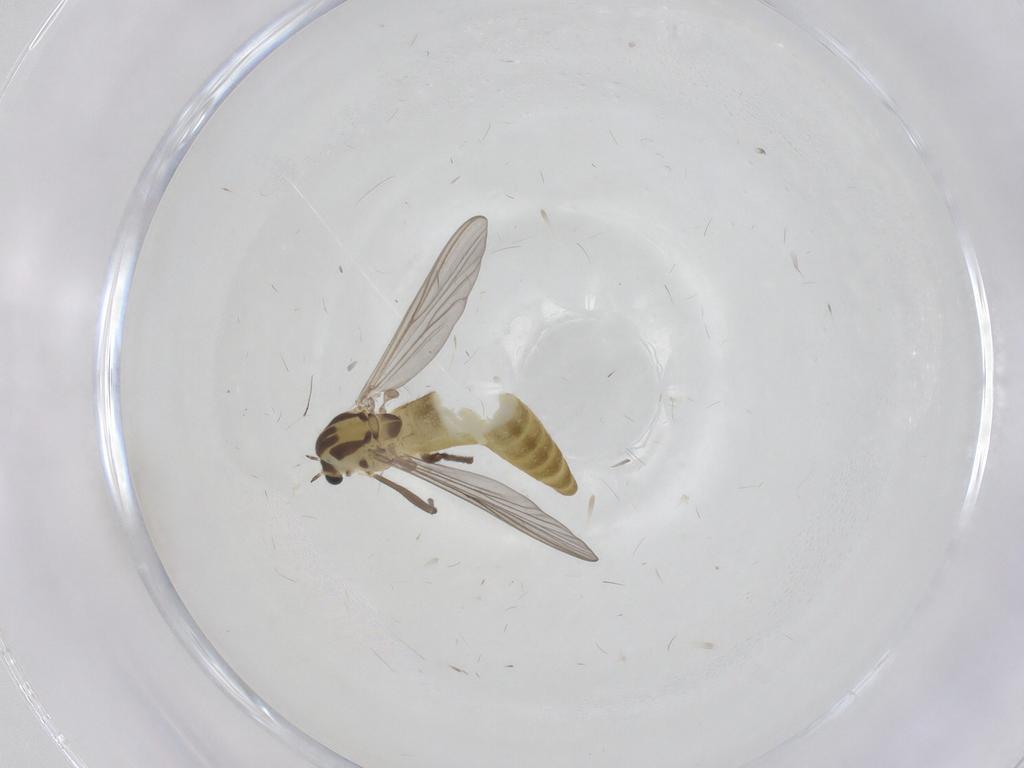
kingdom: Animalia
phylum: Arthropoda
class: Insecta
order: Diptera
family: Chironomidae
